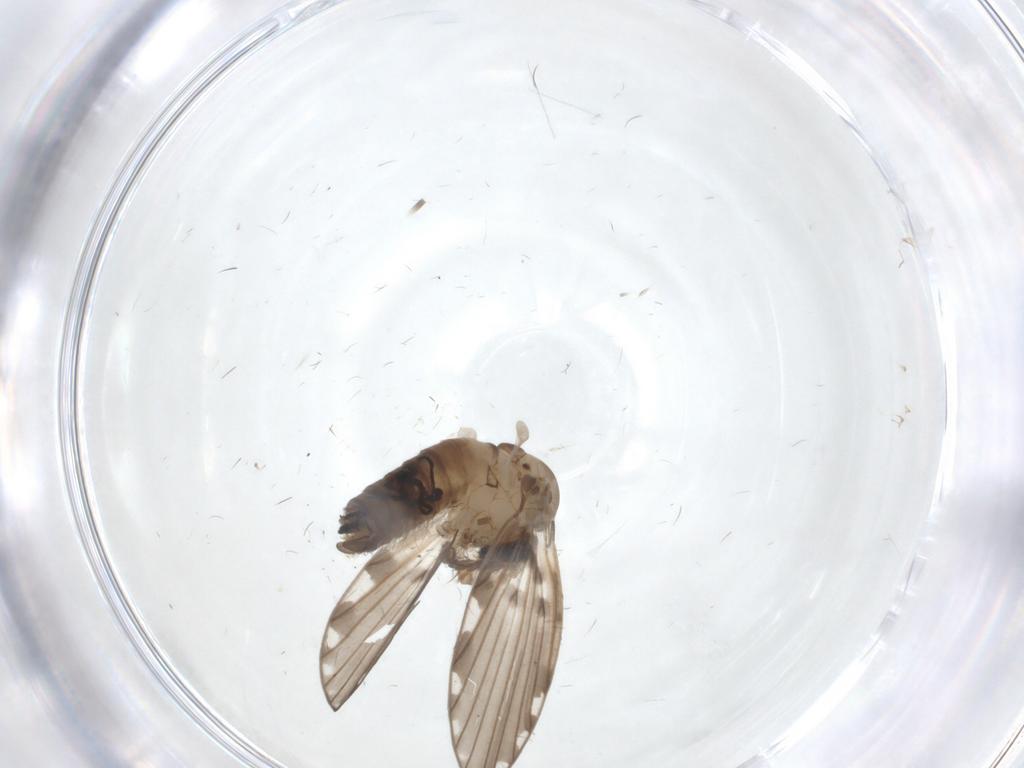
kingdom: Animalia
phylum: Arthropoda
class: Insecta
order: Diptera
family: Psychodidae
